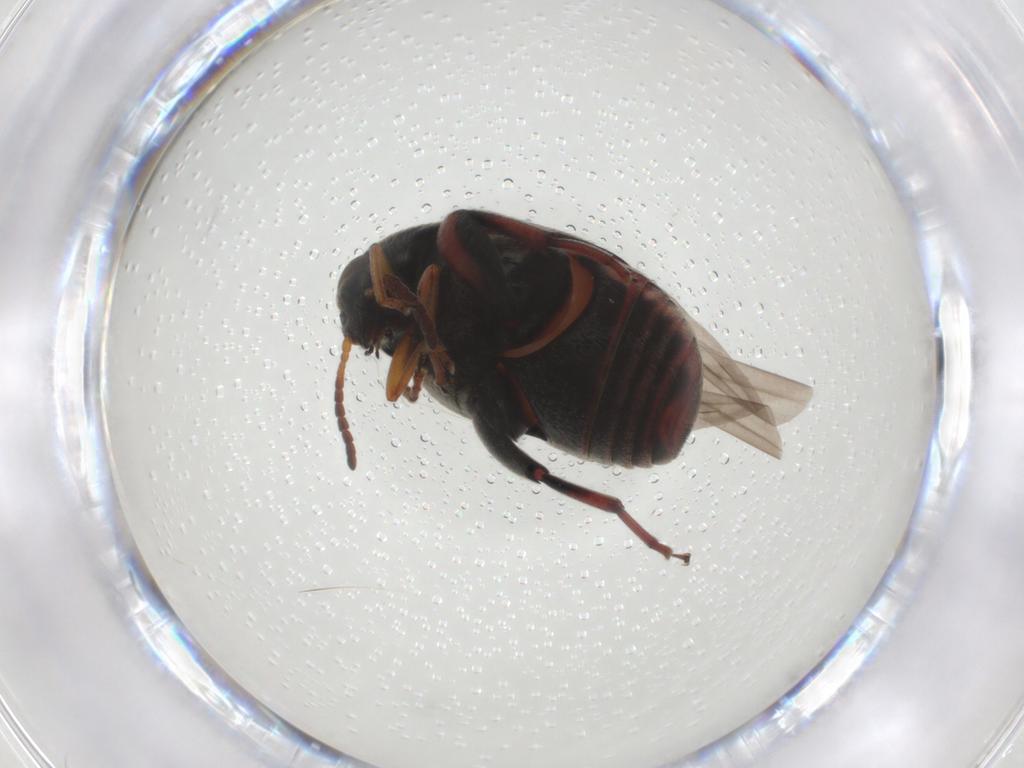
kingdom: Animalia
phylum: Arthropoda
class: Insecta
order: Coleoptera
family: Chrysomelidae
